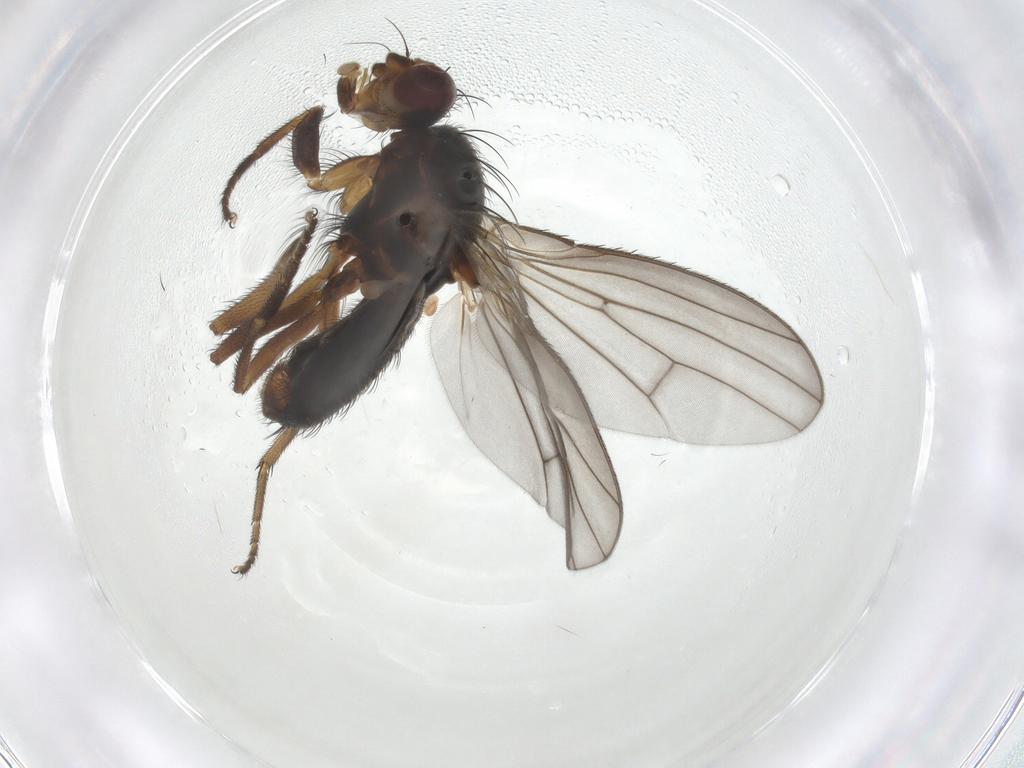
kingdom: Animalia
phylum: Arthropoda
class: Insecta
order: Diptera
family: Heleomyzidae
